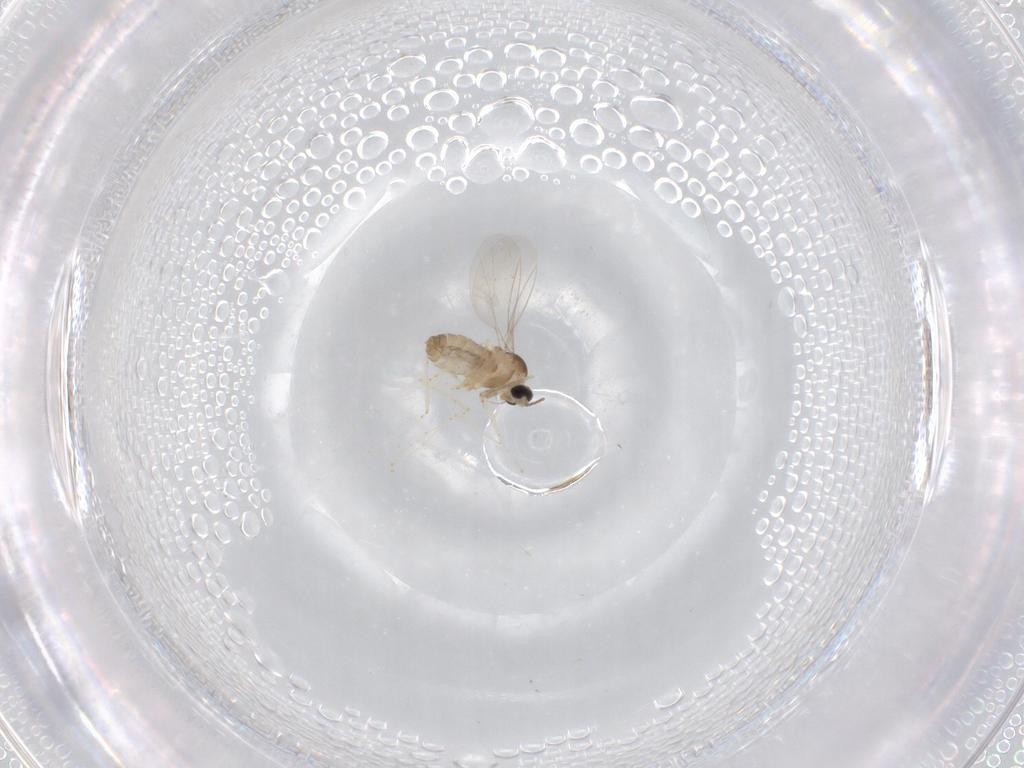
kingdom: Animalia
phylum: Arthropoda
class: Insecta
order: Diptera
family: Cecidomyiidae
